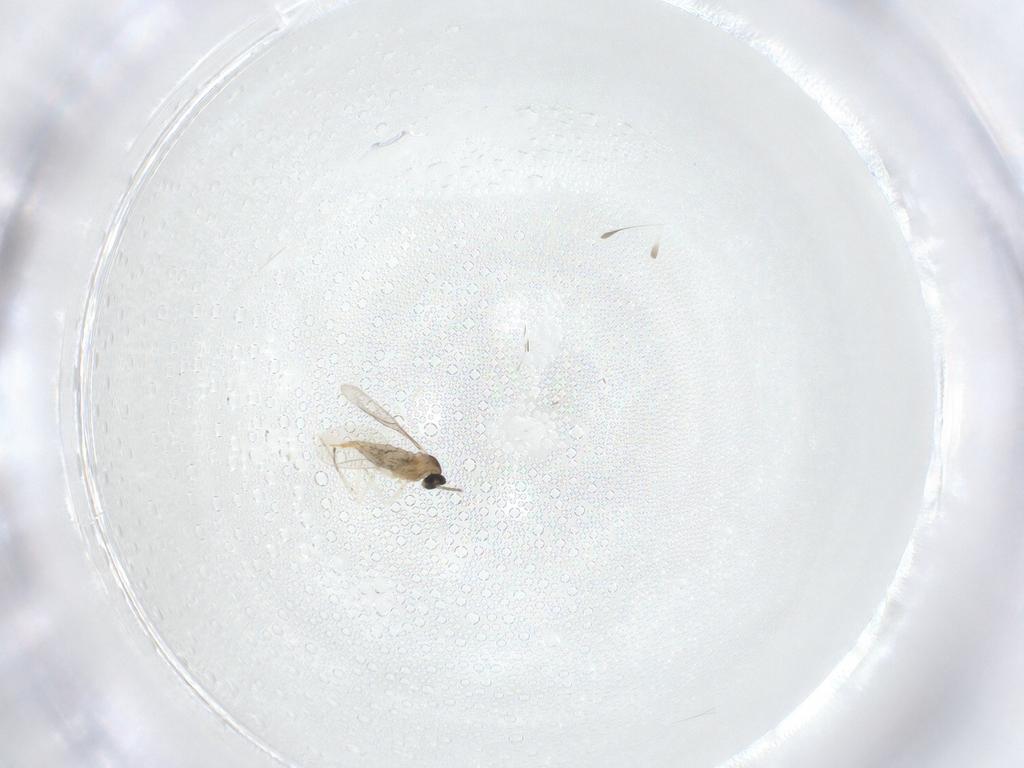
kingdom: Animalia
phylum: Arthropoda
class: Insecta
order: Diptera
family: Cecidomyiidae
